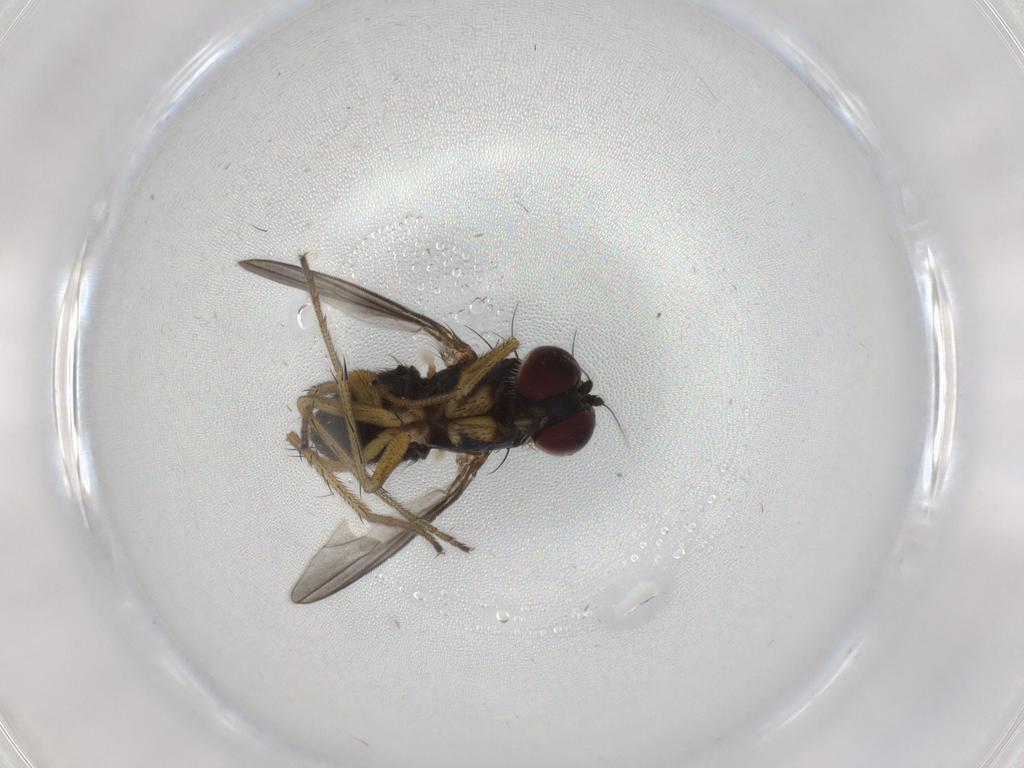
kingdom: Animalia
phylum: Arthropoda
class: Insecta
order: Diptera
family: Dolichopodidae
